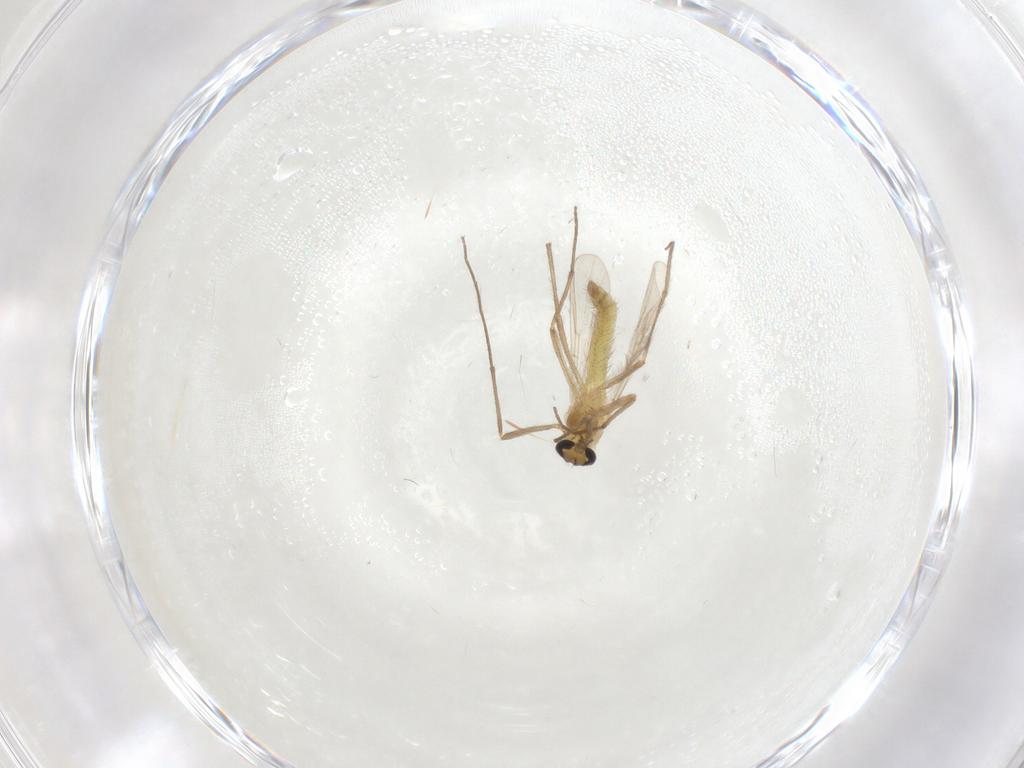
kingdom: Animalia
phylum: Arthropoda
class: Insecta
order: Diptera
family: Chironomidae
